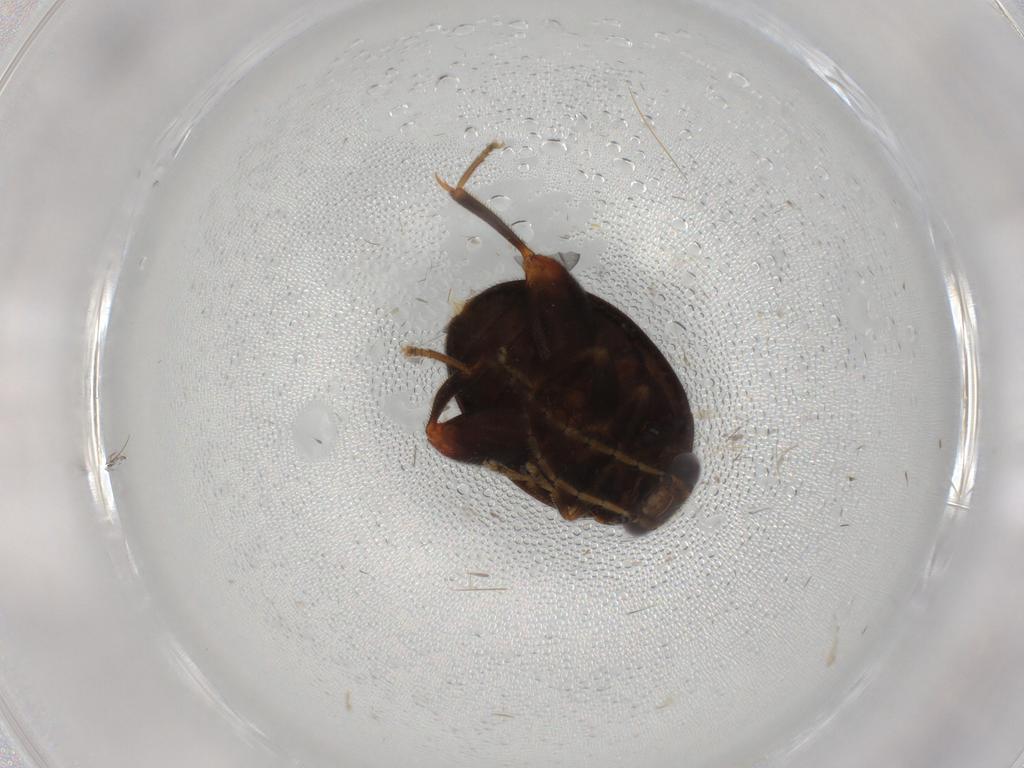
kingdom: Animalia
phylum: Arthropoda
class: Insecta
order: Coleoptera
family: Scirtidae
